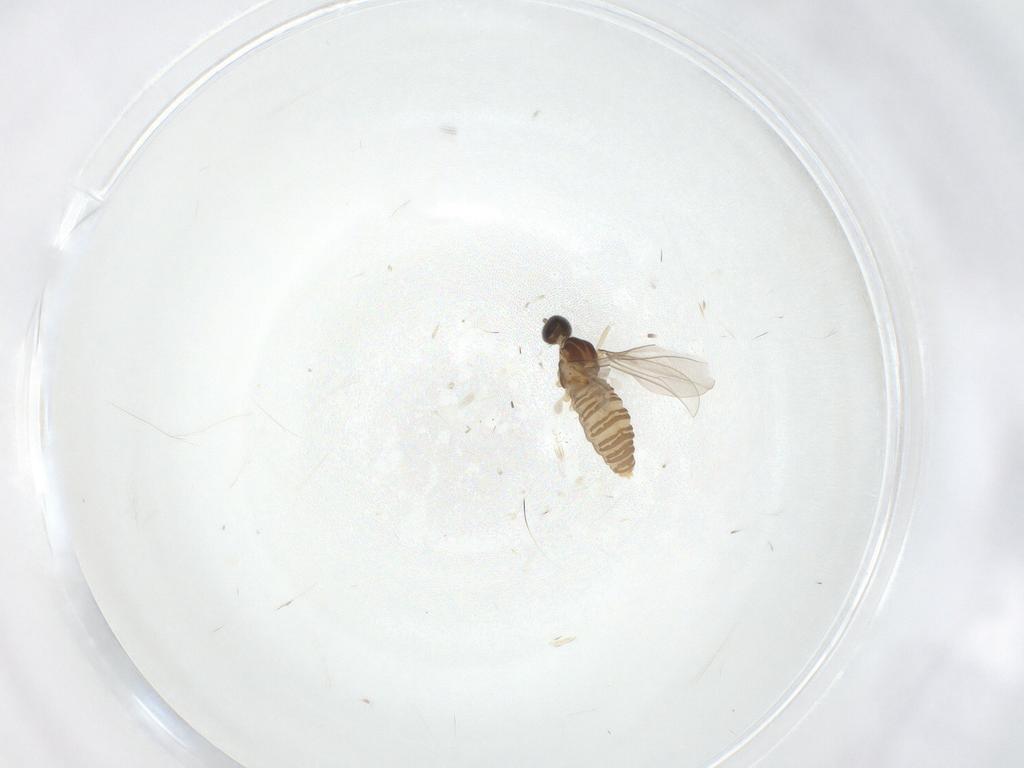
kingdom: Animalia
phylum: Arthropoda
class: Insecta
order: Diptera
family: Cecidomyiidae
